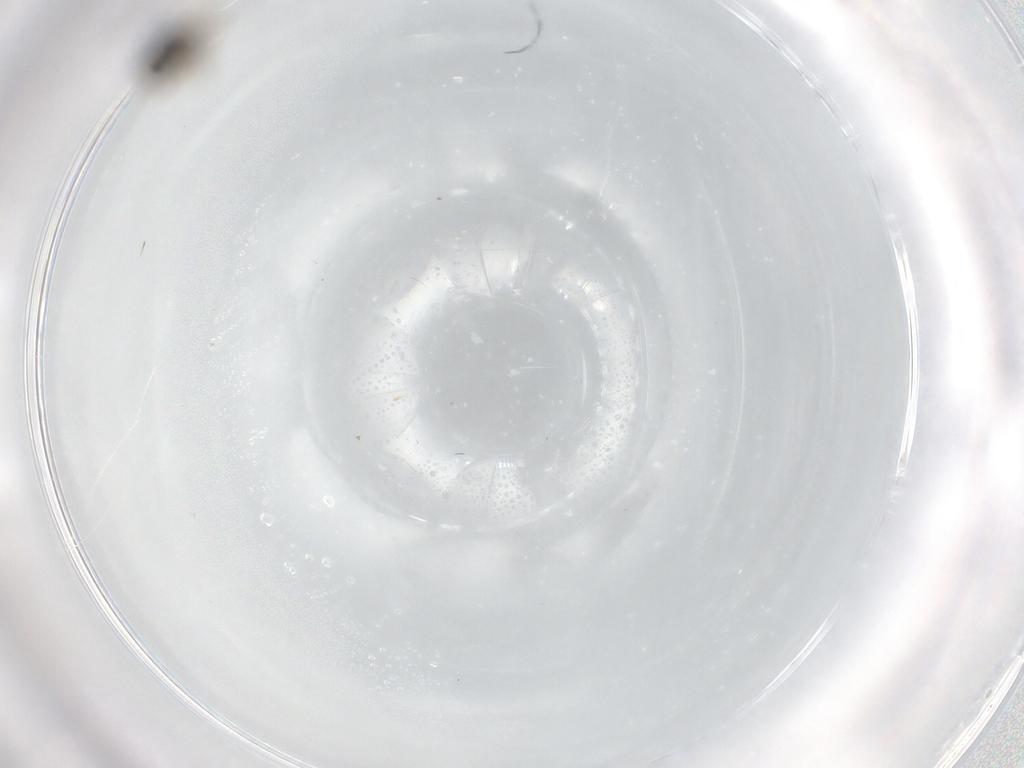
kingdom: Animalia
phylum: Arthropoda
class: Insecta
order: Diptera
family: Cecidomyiidae
